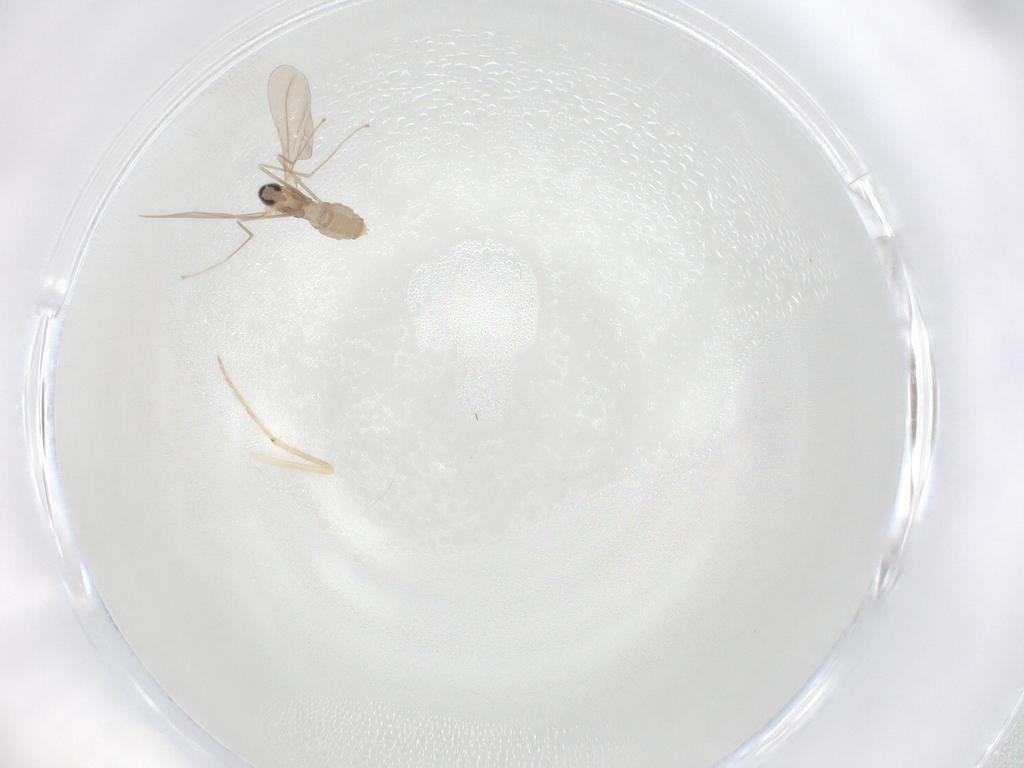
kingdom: Animalia
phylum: Arthropoda
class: Insecta
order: Diptera
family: Cecidomyiidae
